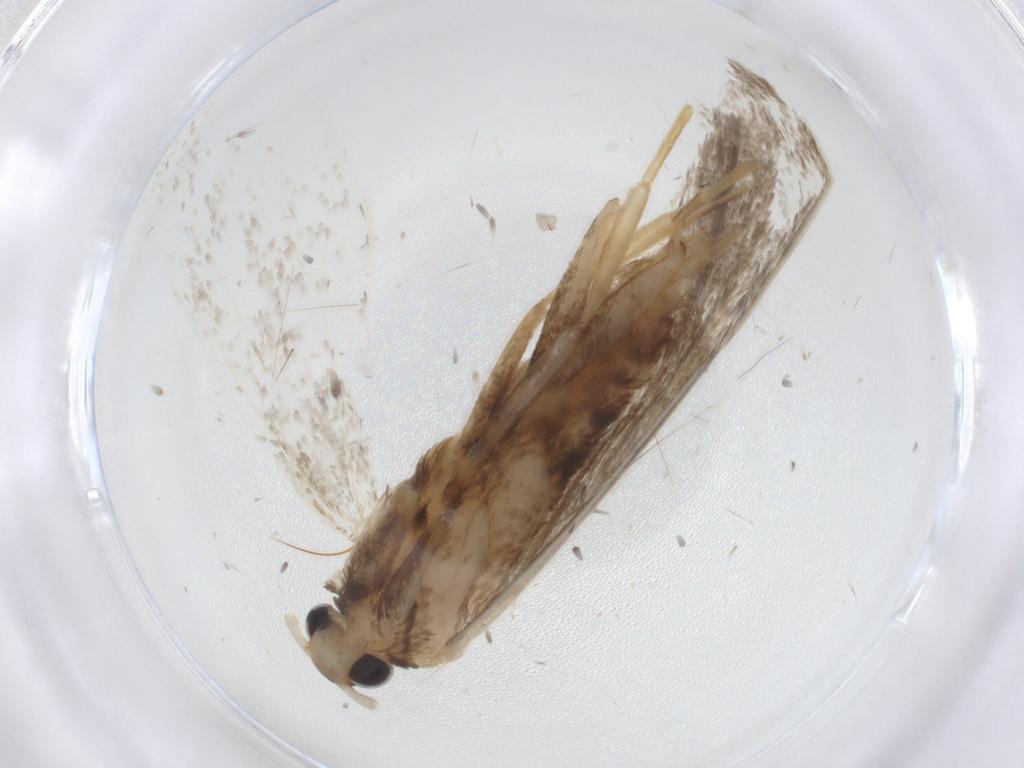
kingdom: Animalia
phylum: Arthropoda
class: Insecta
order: Lepidoptera
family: Lecithoceridae
